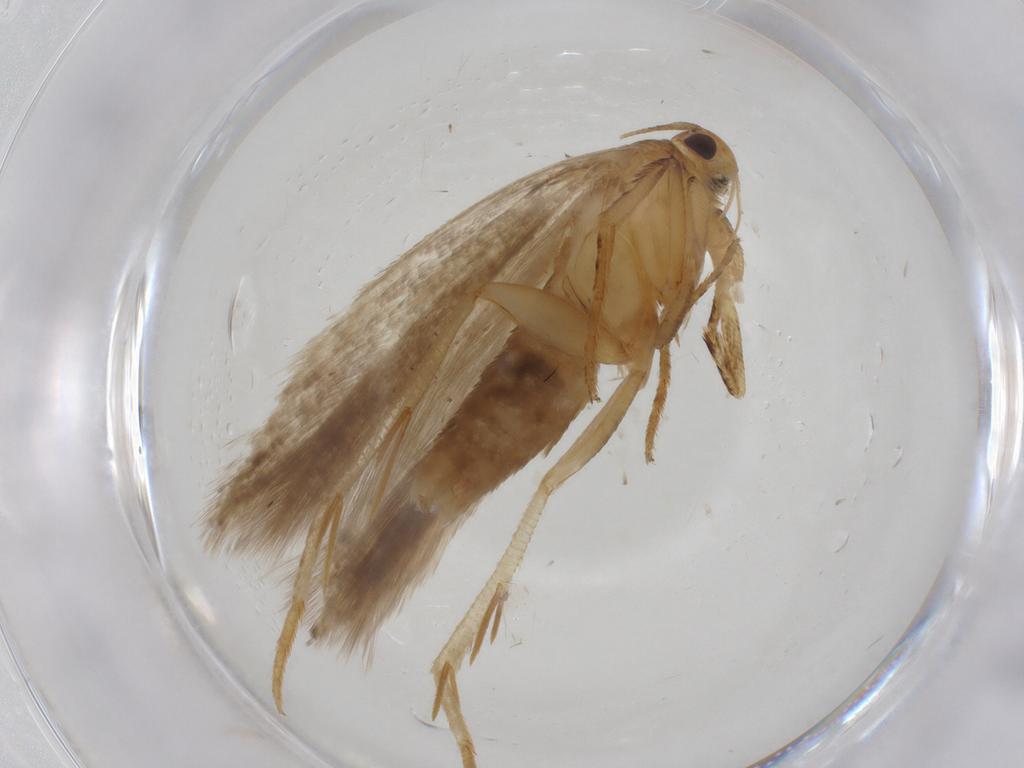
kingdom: Animalia
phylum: Arthropoda
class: Insecta
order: Lepidoptera
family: Gelechiidae
